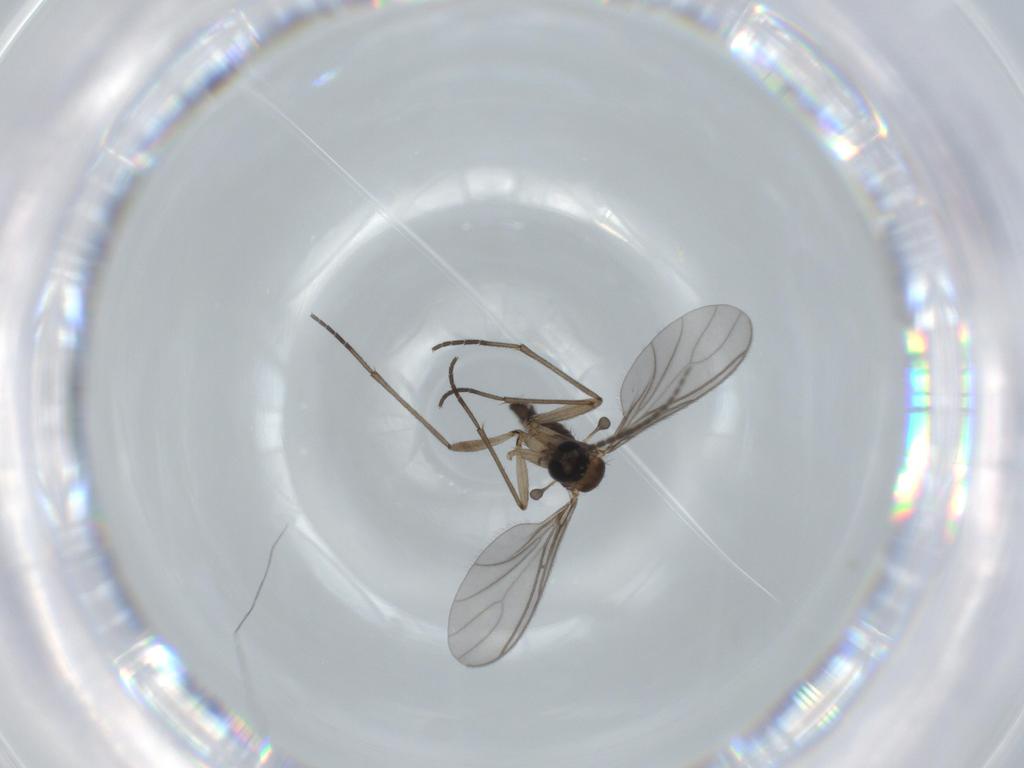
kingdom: Animalia
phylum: Arthropoda
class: Insecta
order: Diptera
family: Sciaridae
